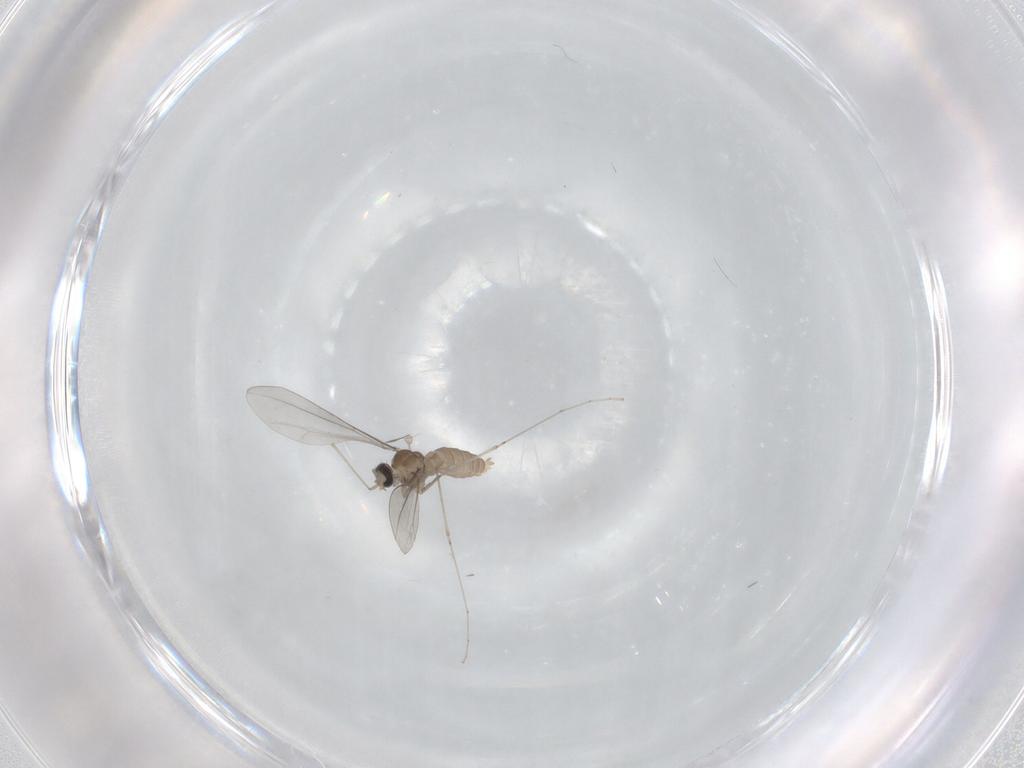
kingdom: Animalia
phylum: Arthropoda
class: Insecta
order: Diptera
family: Cecidomyiidae
